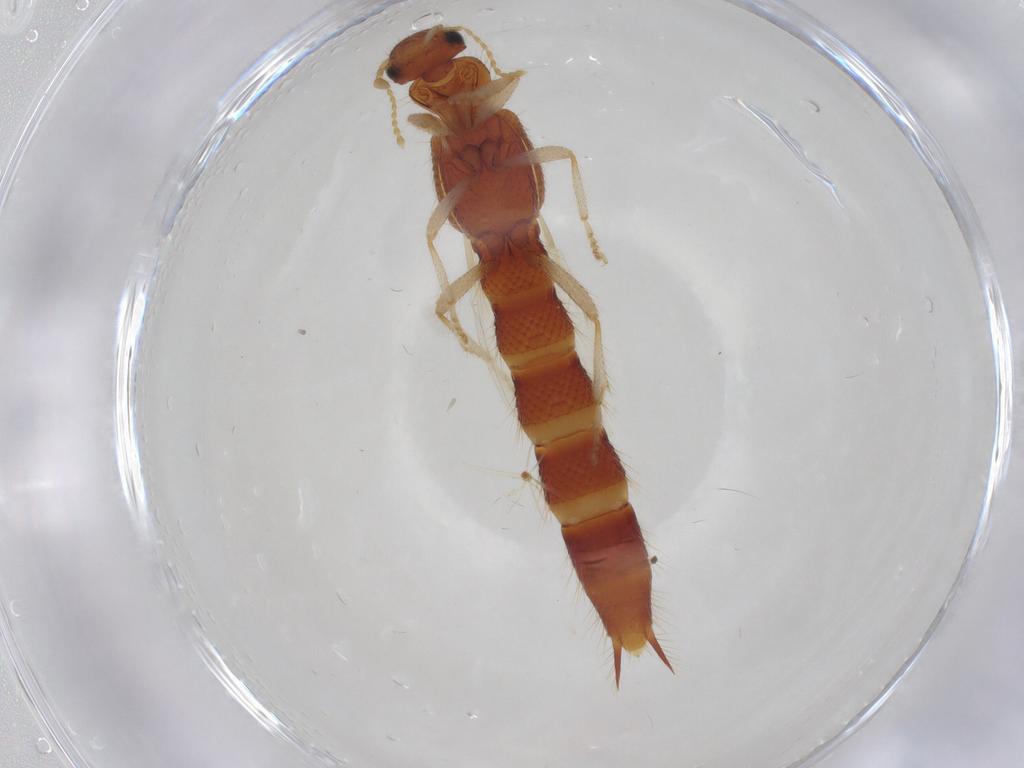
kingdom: Animalia
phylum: Arthropoda
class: Insecta
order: Coleoptera
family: Staphylinidae
